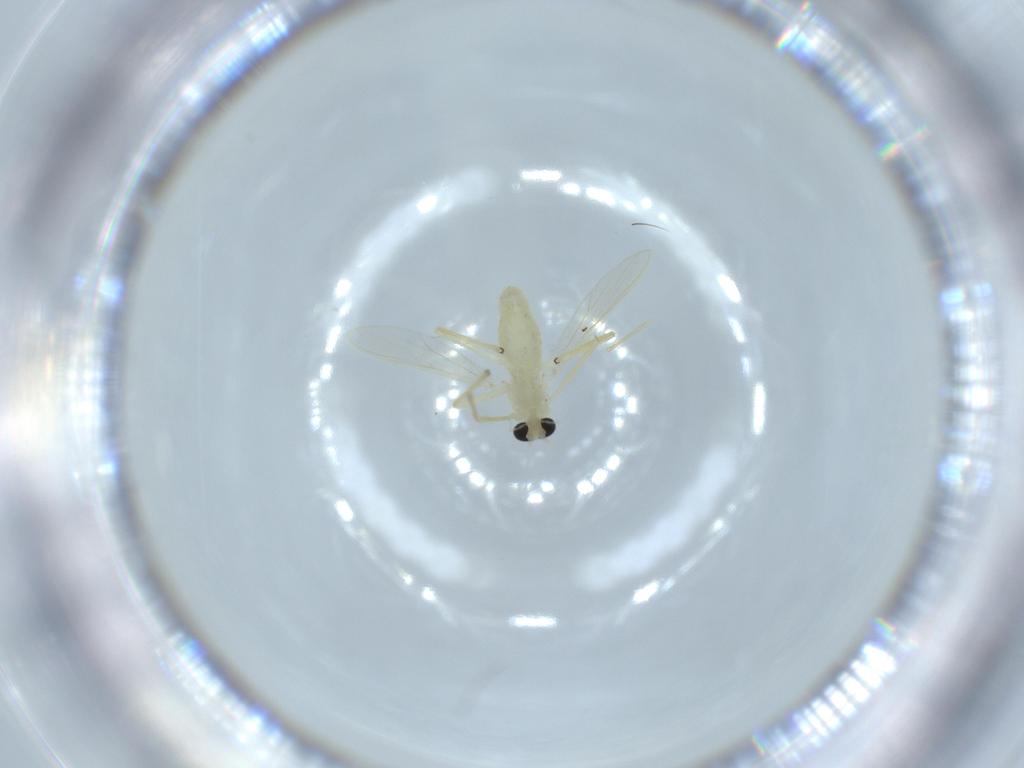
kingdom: Animalia
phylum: Arthropoda
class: Insecta
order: Diptera
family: Chironomidae
